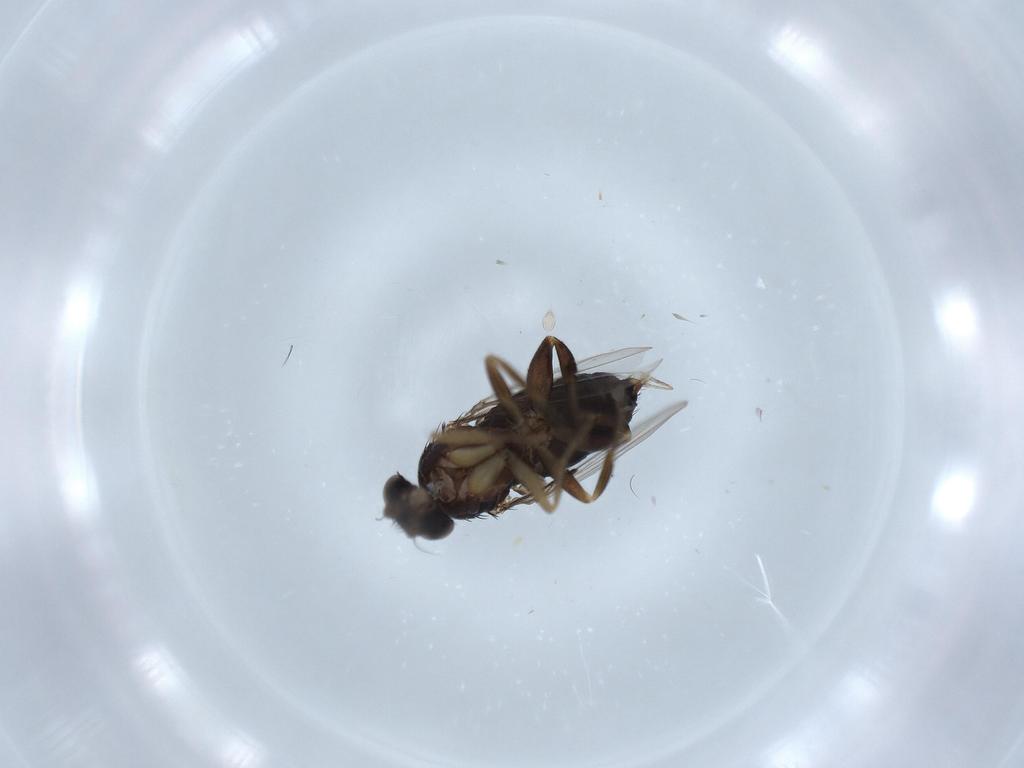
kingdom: Animalia
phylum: Arthropoda
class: Insecta
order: Diptera
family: Phoridae
